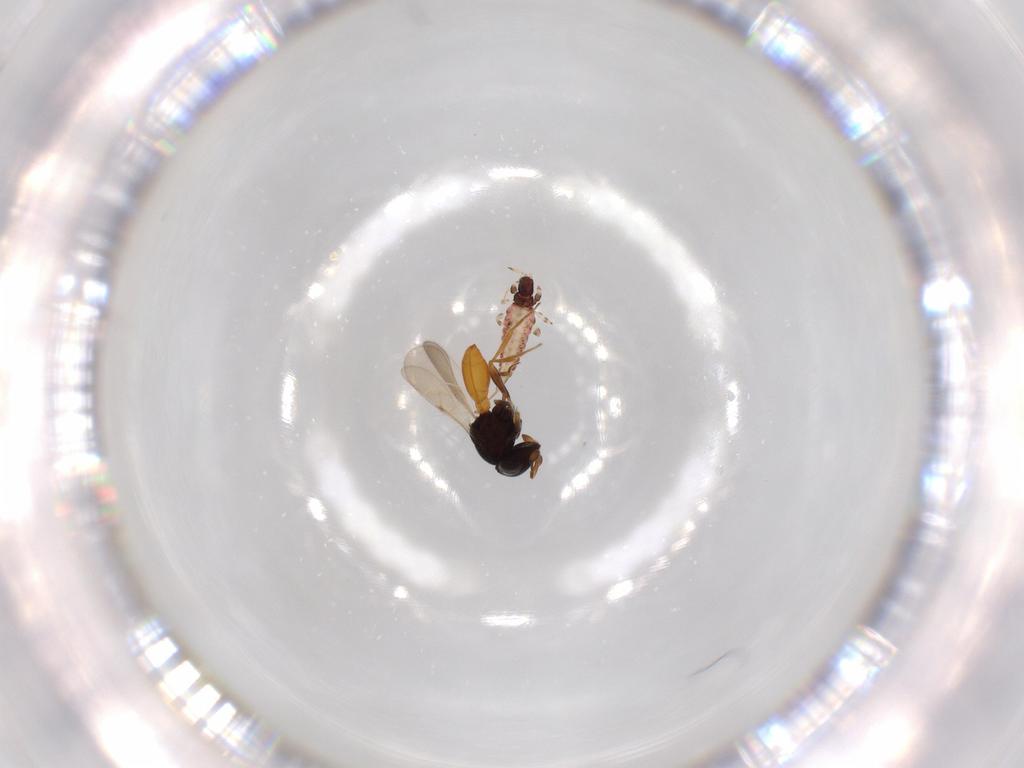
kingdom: Animalia
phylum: Arthropoda
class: Insecta
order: Hymenoptera
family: Scelionidae
